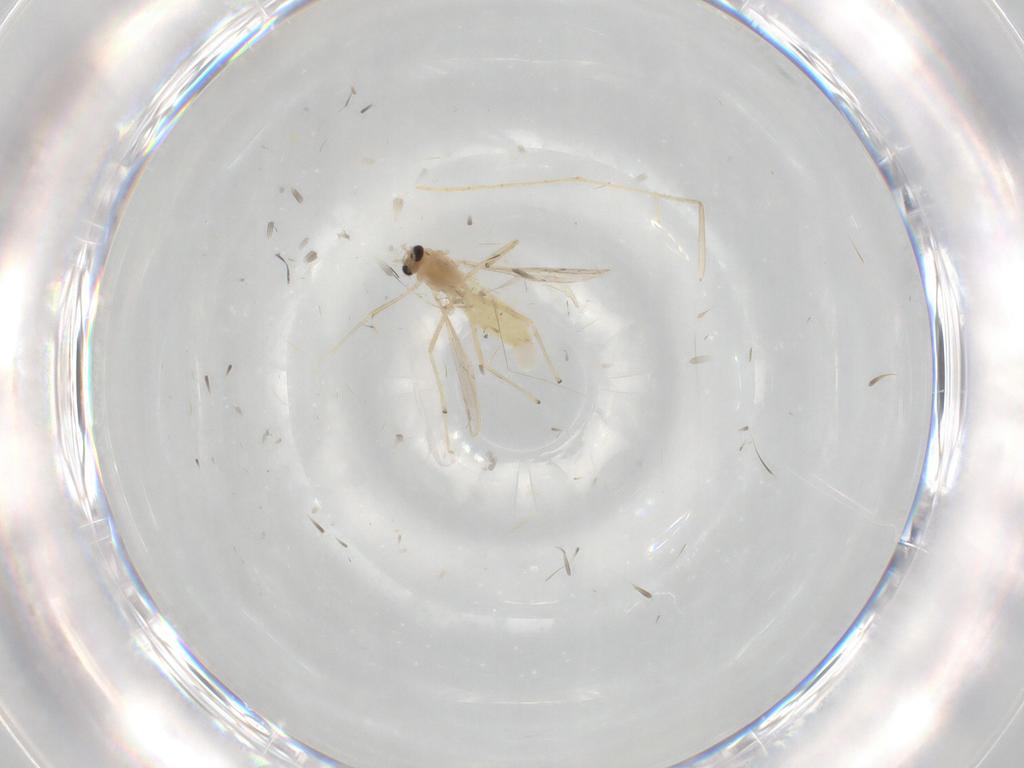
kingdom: Animalia
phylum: Arthropoda
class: Insecta
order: Diptera
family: Chironomidae
